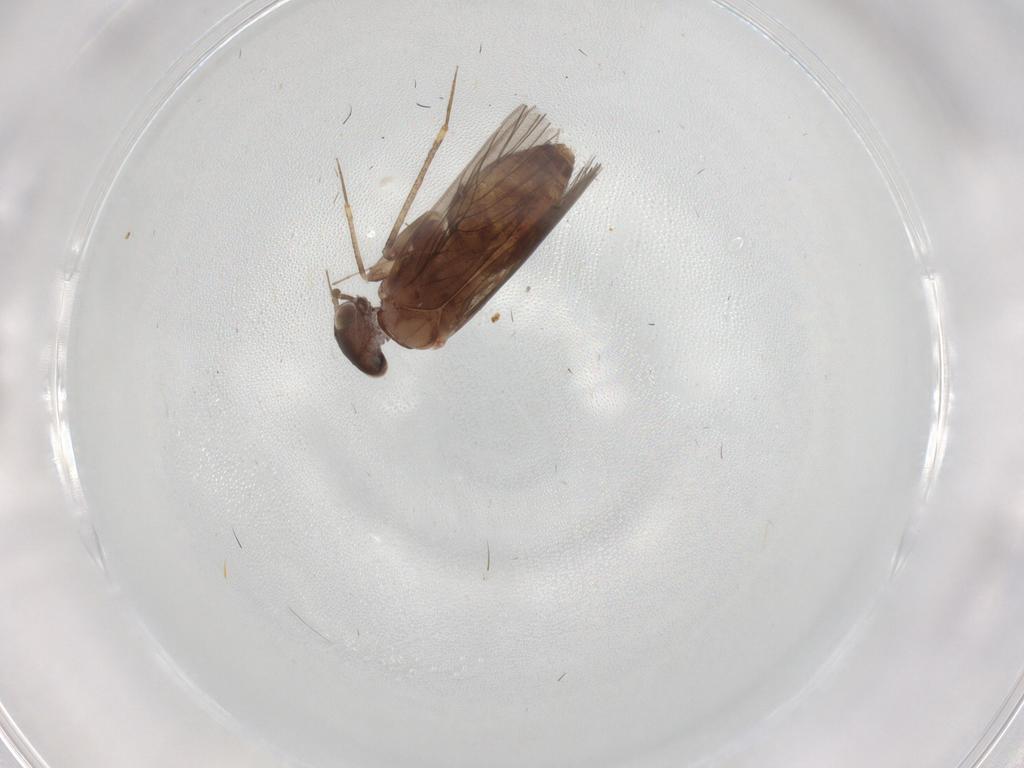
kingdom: Animalia
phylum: Arthropoda
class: Insecta
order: Psocodea
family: Lepidopsocidae
